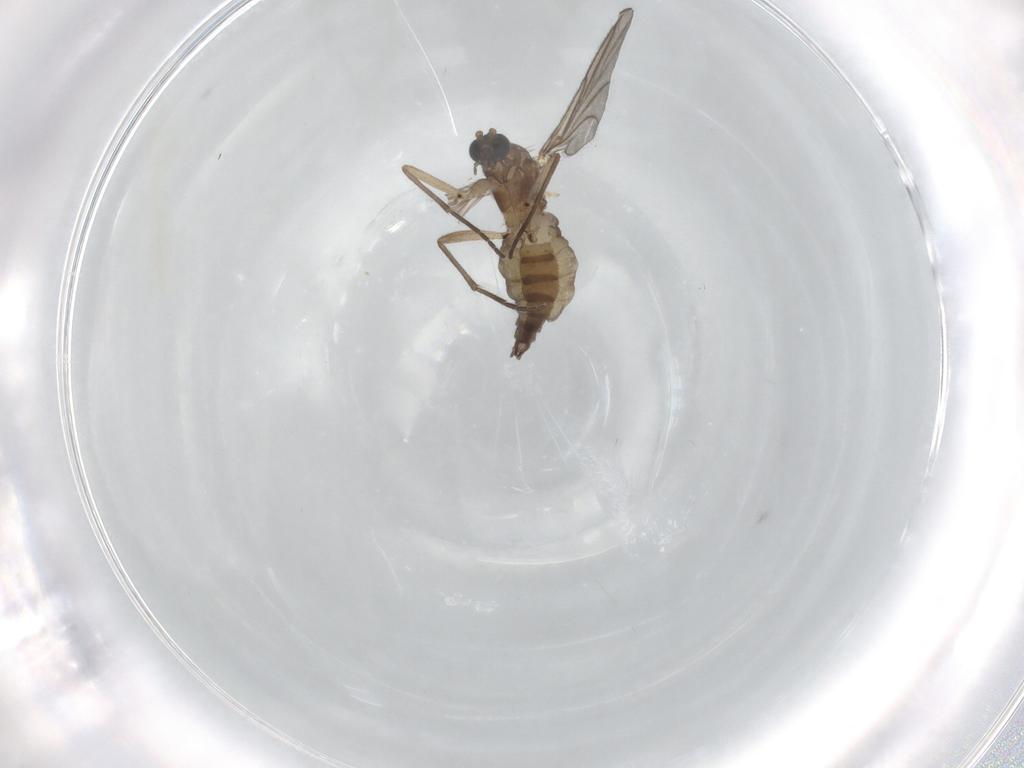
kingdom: Animalia
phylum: Arthropoda
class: Insecta
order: Diptera
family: Sciaridae
